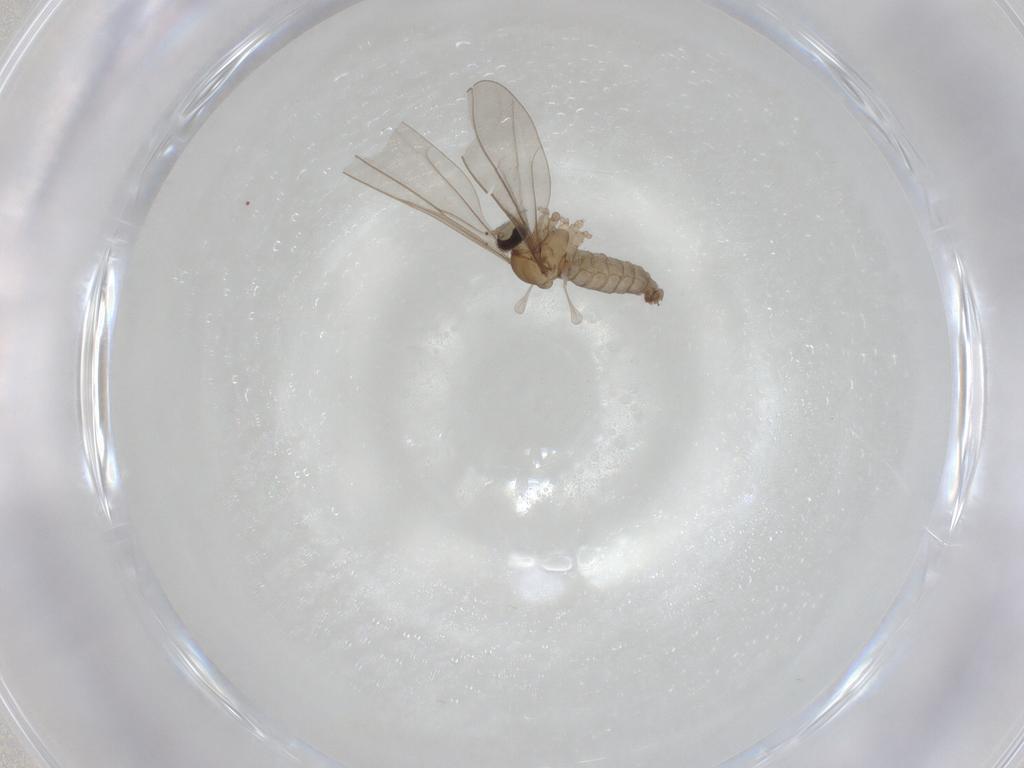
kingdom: Animalia
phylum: Arthropoda
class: Insecta
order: Diptera
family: Cecidomyiidae
